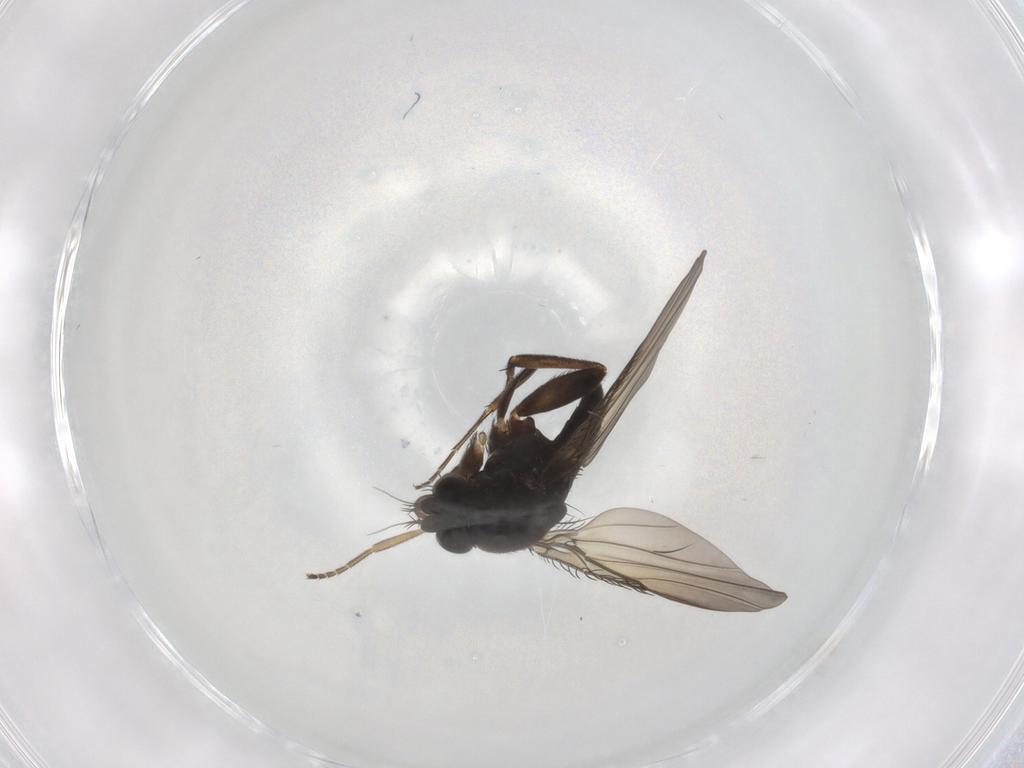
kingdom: Animalia
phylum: Arthropoda
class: Insecta
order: Diptera
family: Phoridae
